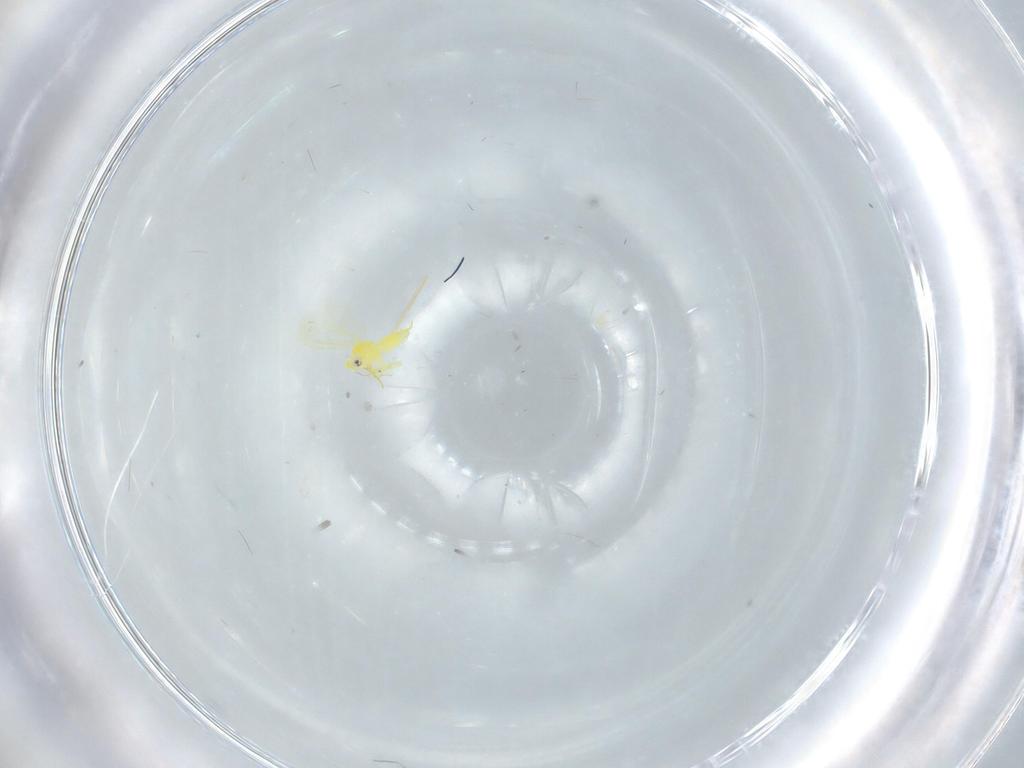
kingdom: Animalia
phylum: Arthropoda
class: Insecta
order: Hemiptera
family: Aleyrodidae
